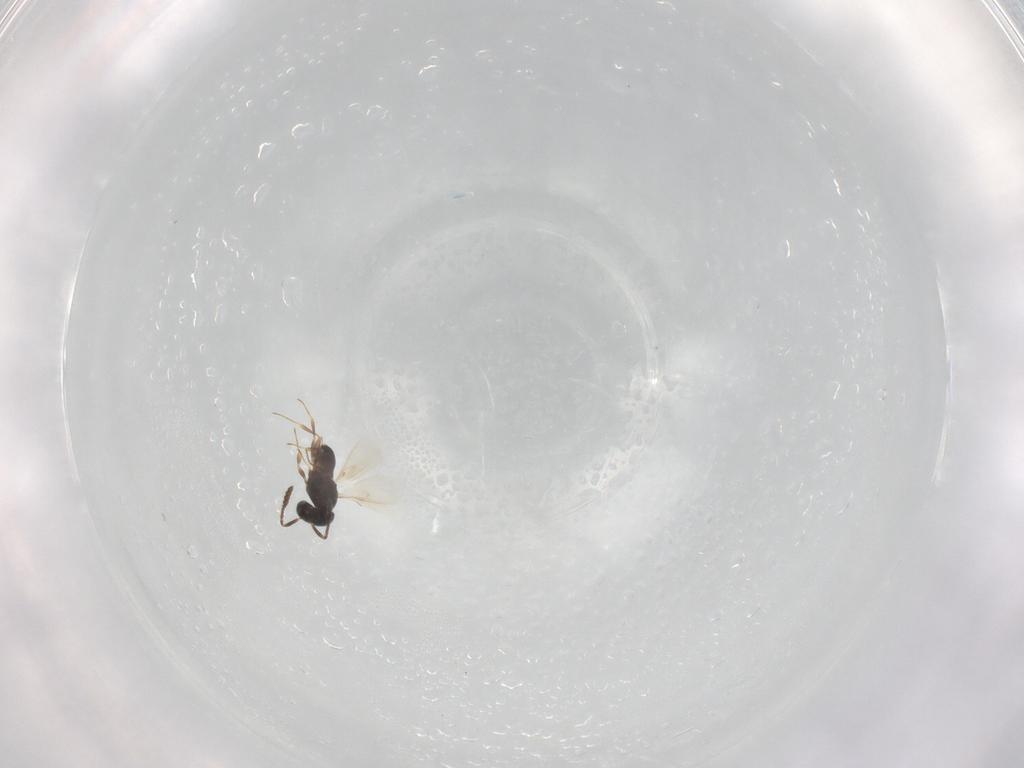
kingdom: Animalia
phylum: Arthropoda
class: Insecta
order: Hymenoptera
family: Scelionidae
